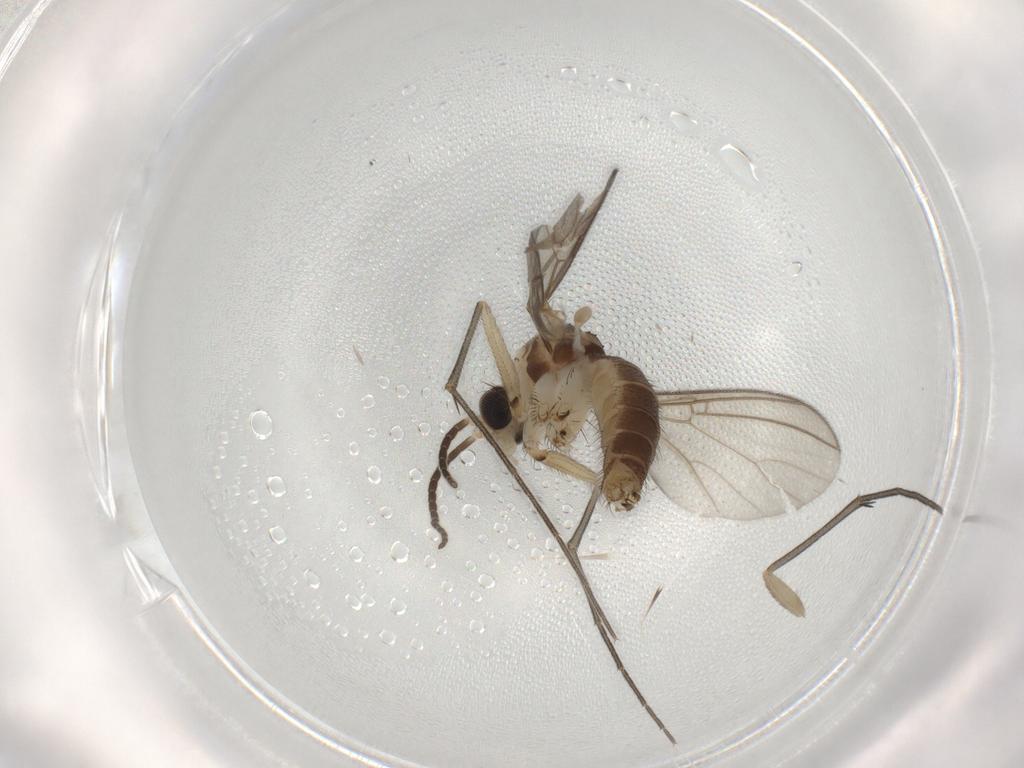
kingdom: Animalia
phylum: Arthropoda
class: Insecta
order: Diptera
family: Mycetophilidae
